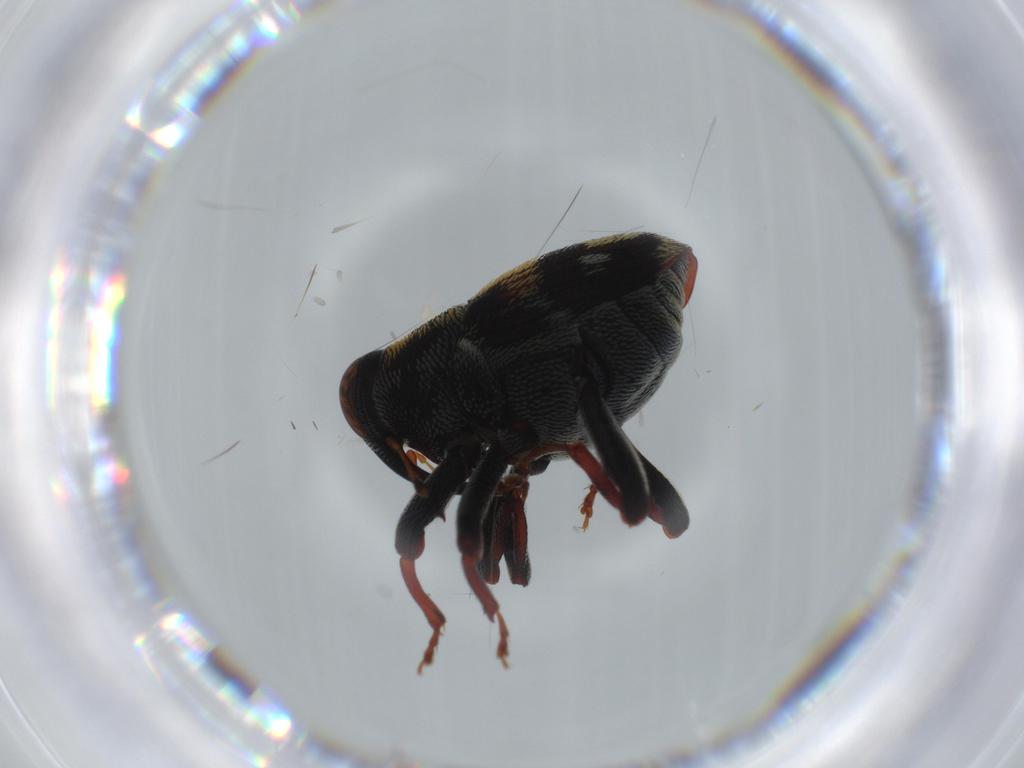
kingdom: Animalia
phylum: Arthropoda
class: Insecta
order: Coleoptera
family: Curculionidae
